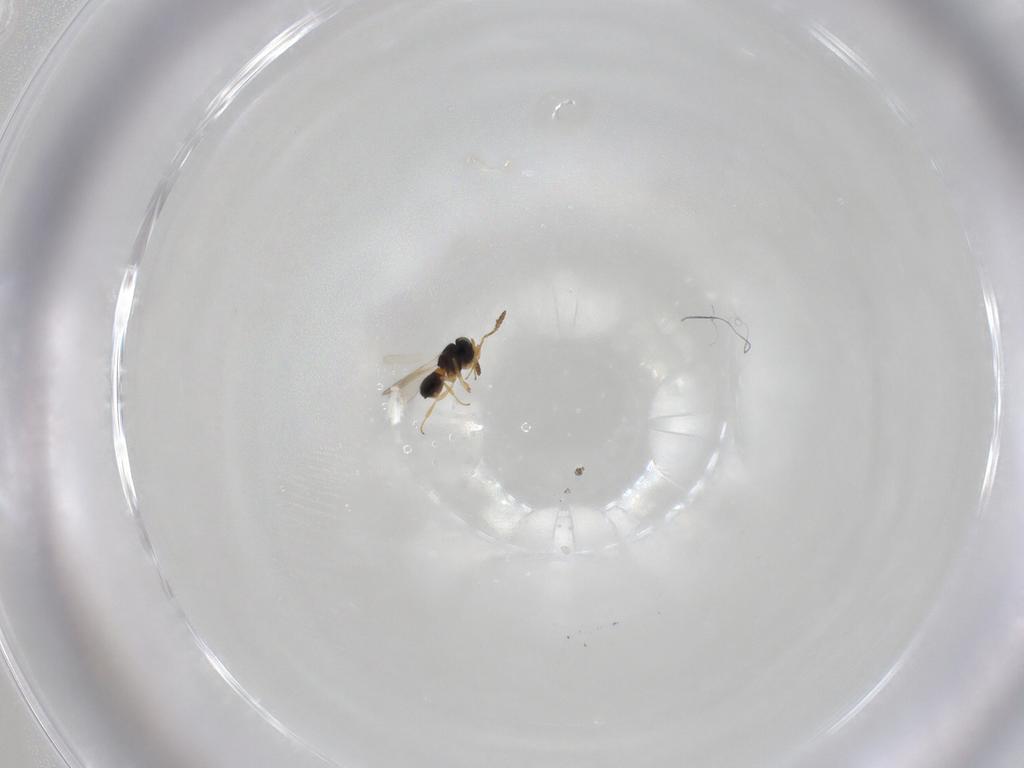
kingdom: Animalia
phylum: Arthropoda
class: Insecta
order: Hymenoptera
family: Scelionidae
